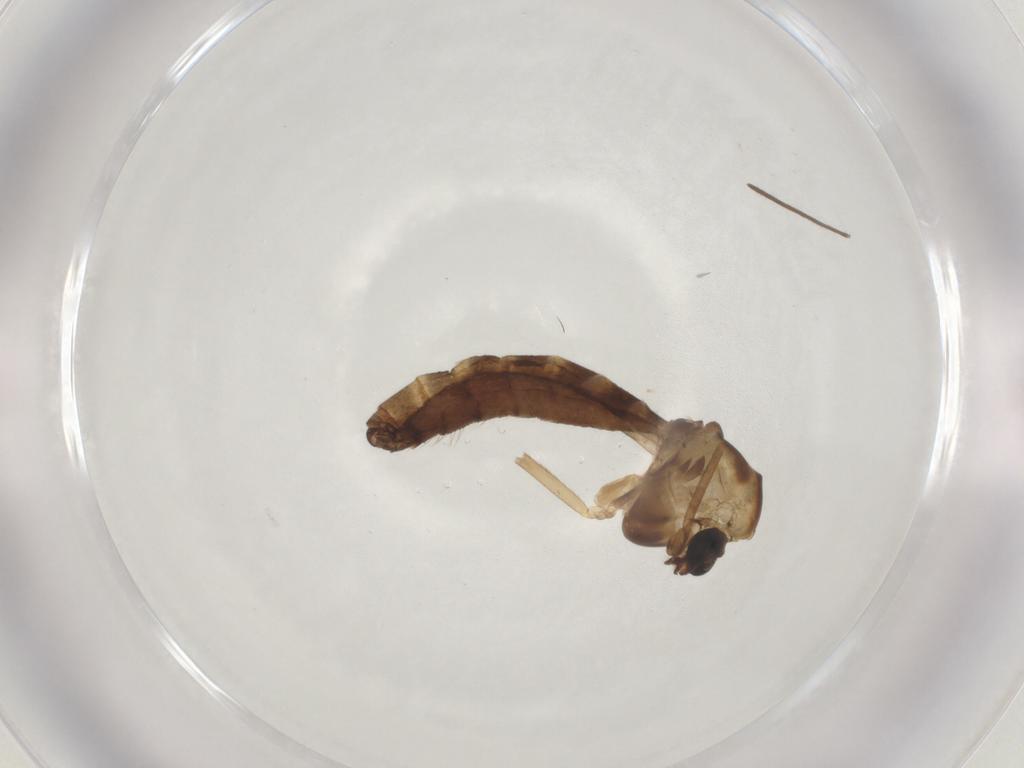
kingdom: Animalia
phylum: Arthropoda
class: Insecta
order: Diptera
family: Chironomidae
